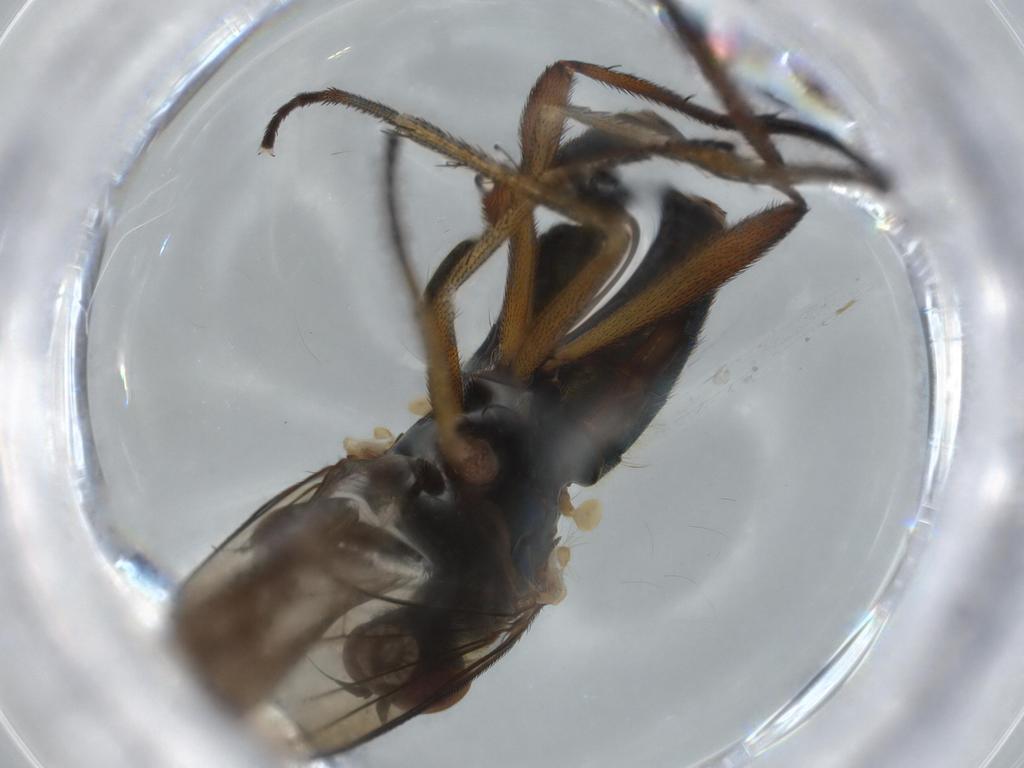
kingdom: Animalia
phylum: Arthropoda
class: Insecta
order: Diptera
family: Dolichopodidae
